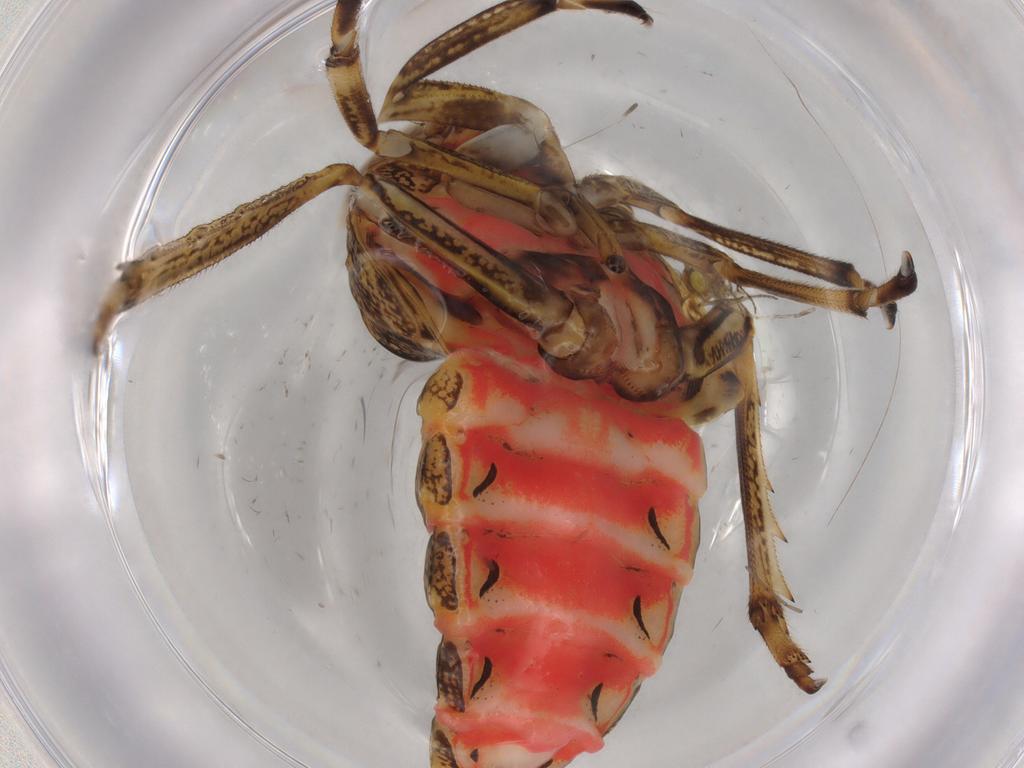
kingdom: Animalia
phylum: Arthropoda
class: Insecta
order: Hemiptera
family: Issidae
